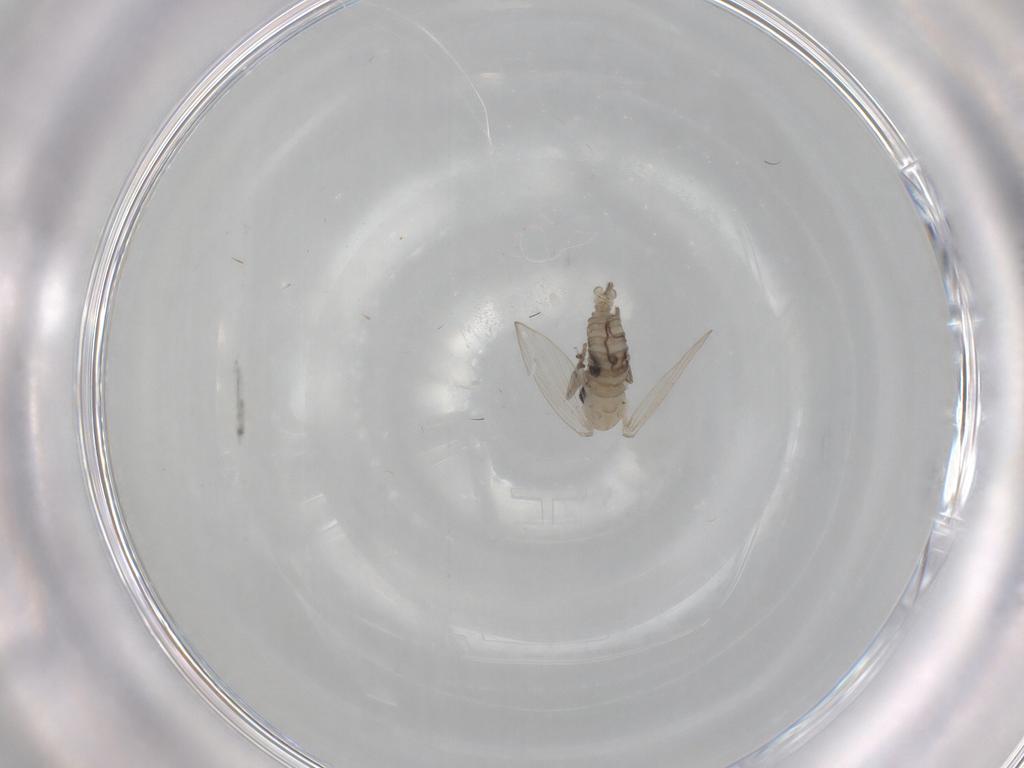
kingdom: Animalia
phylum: Arthropoda
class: Insecta
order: Diptera
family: Psychodidae
